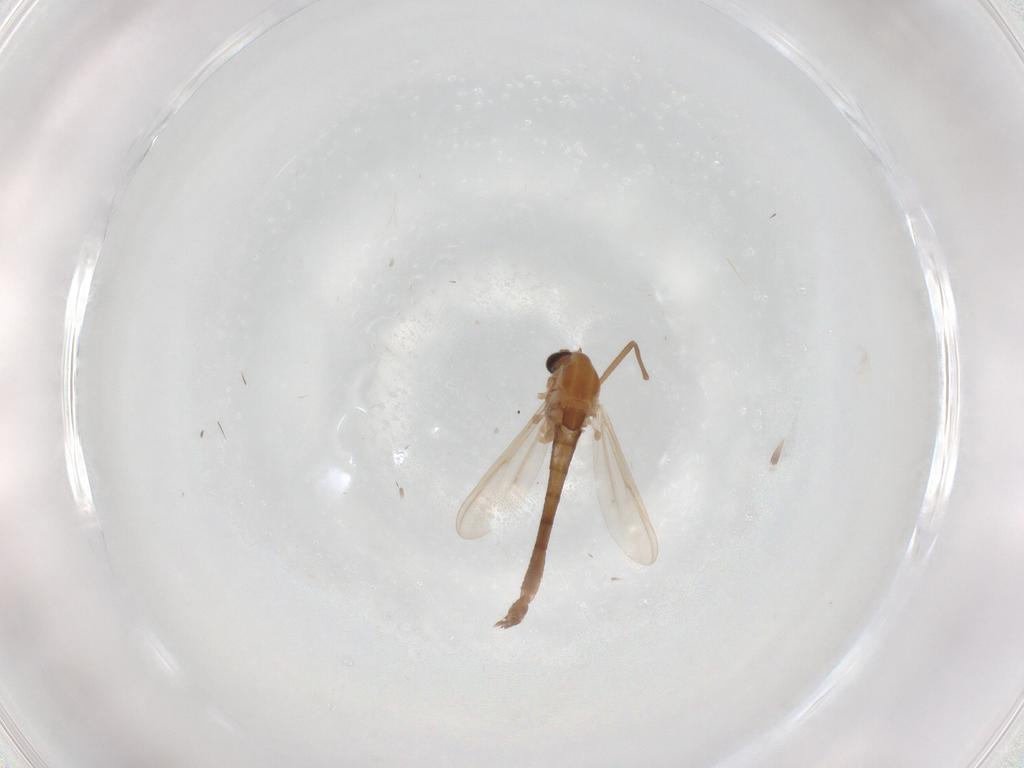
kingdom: Animalia
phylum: Arthropoda
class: Insecta
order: Diptera
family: Chironomidae
